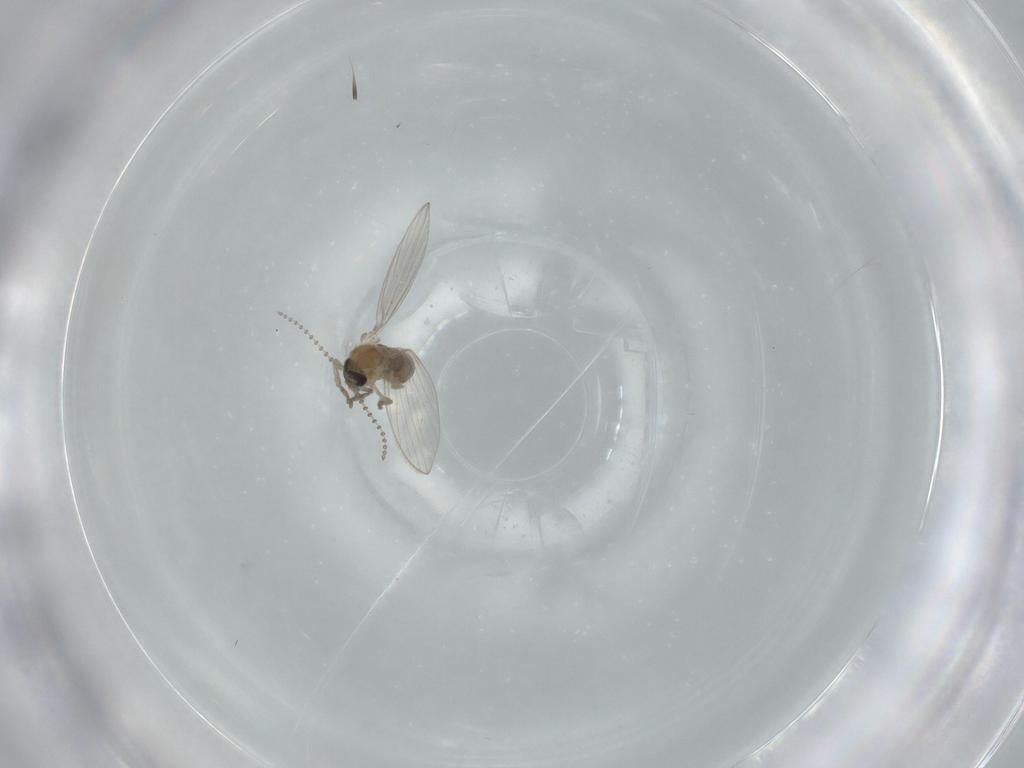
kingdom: Animalia
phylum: Arthropoda
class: Insecta
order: Diptera
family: Psychodidae
